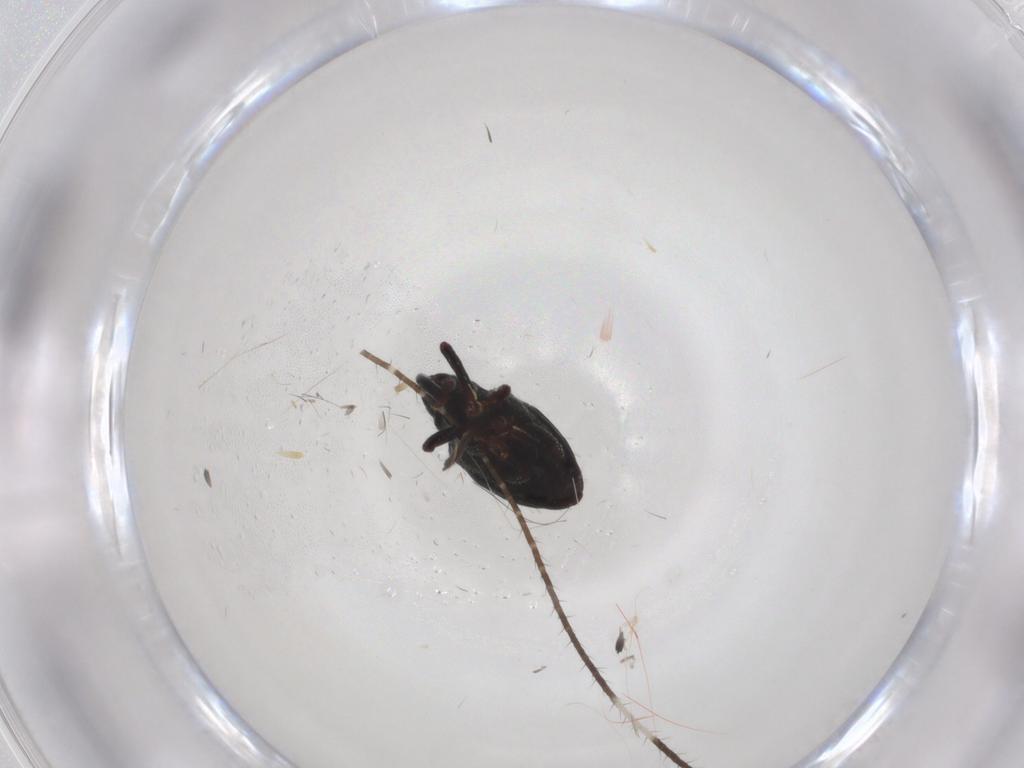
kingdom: Animalia
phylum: Arthropoda
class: Insecta
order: Coleoptera
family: Curculionidae
